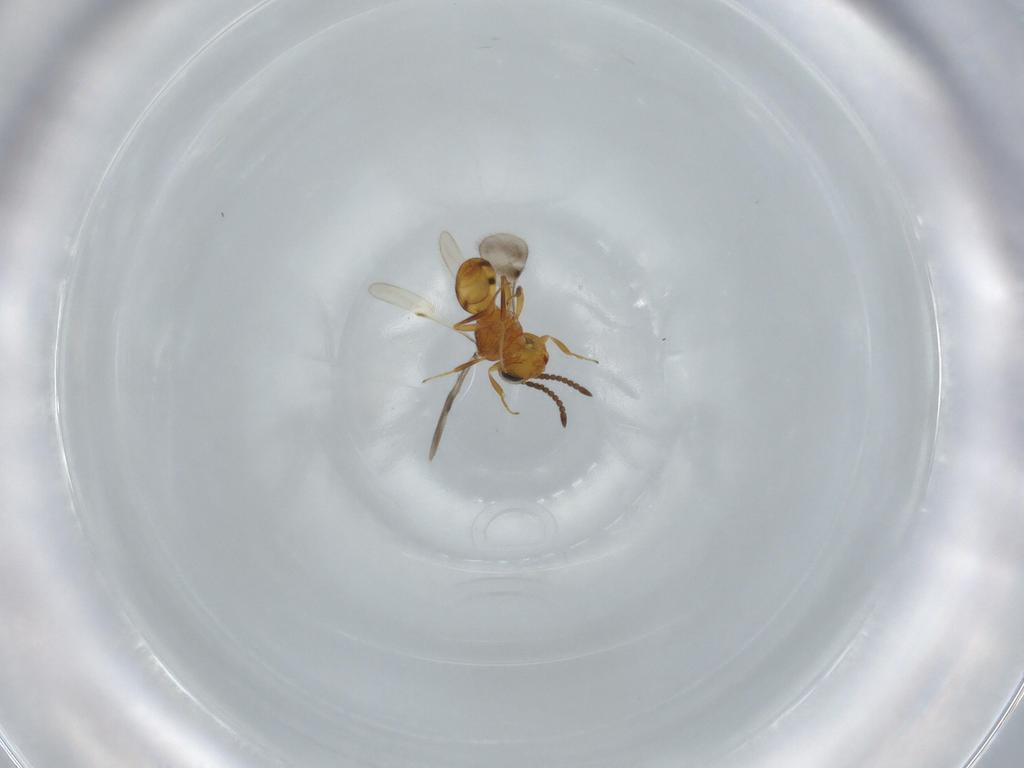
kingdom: Animalia
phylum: Arthropoda
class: Insecta
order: Hymenoptera
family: Scelionidae
